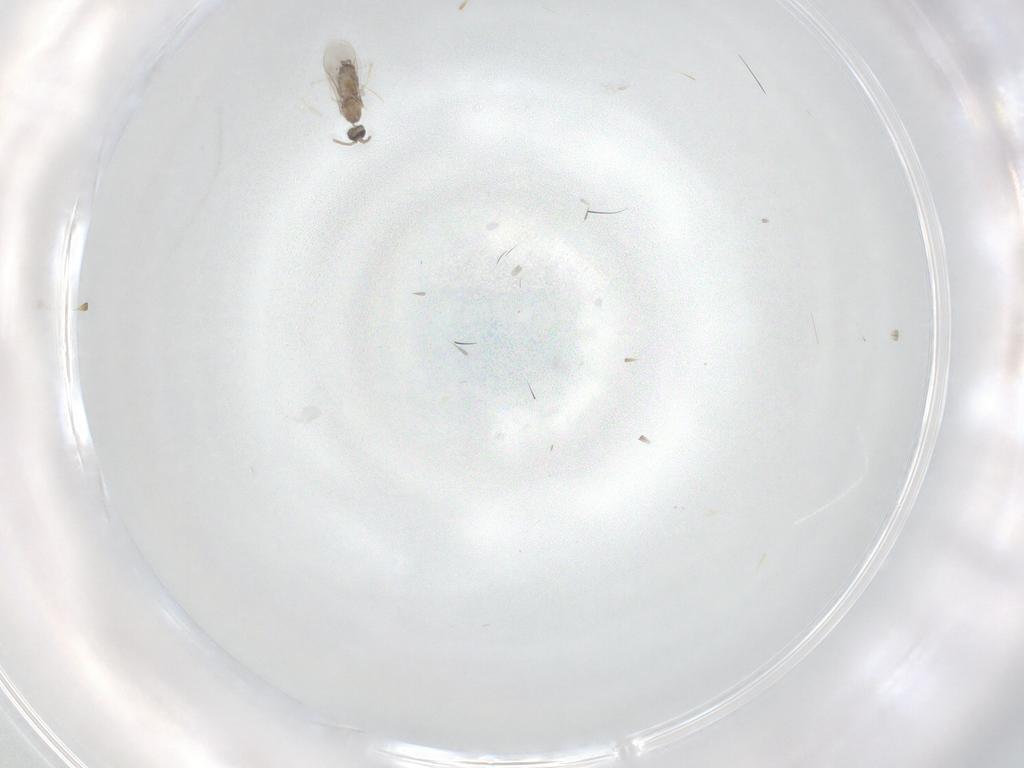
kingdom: Animalia
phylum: Arthropoda
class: Insecta
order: Diptera
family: Cecidomyiidae
